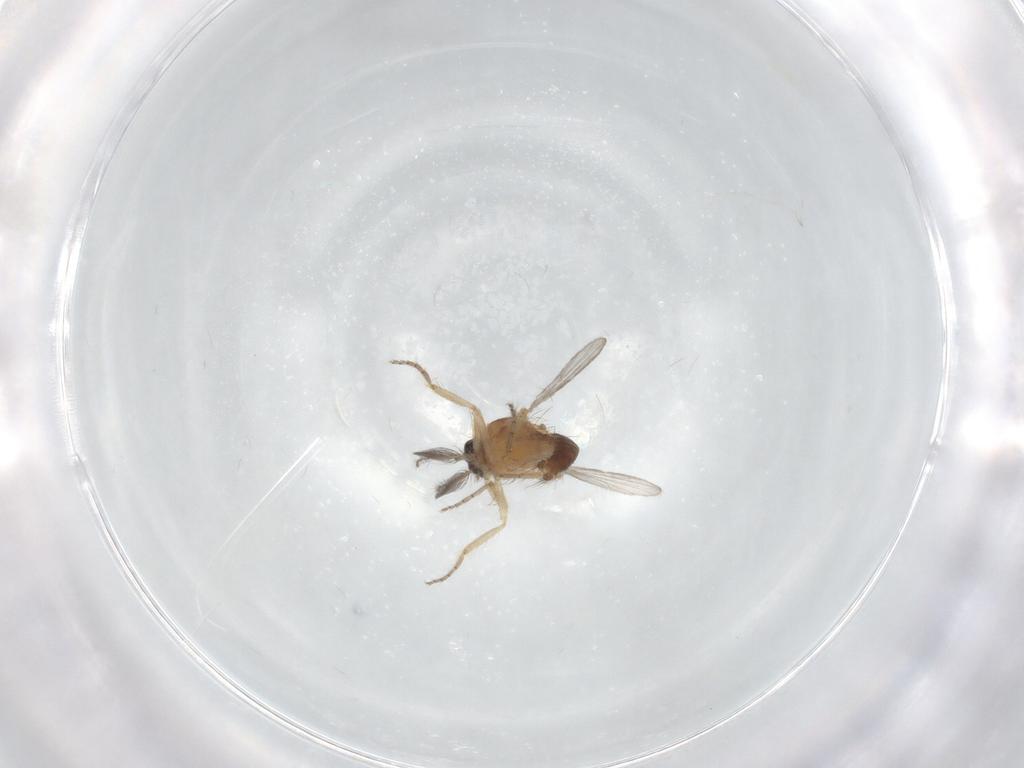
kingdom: Animalia
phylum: Arthropoda
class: Insecta
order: Diptera
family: Ceratopogonidae
